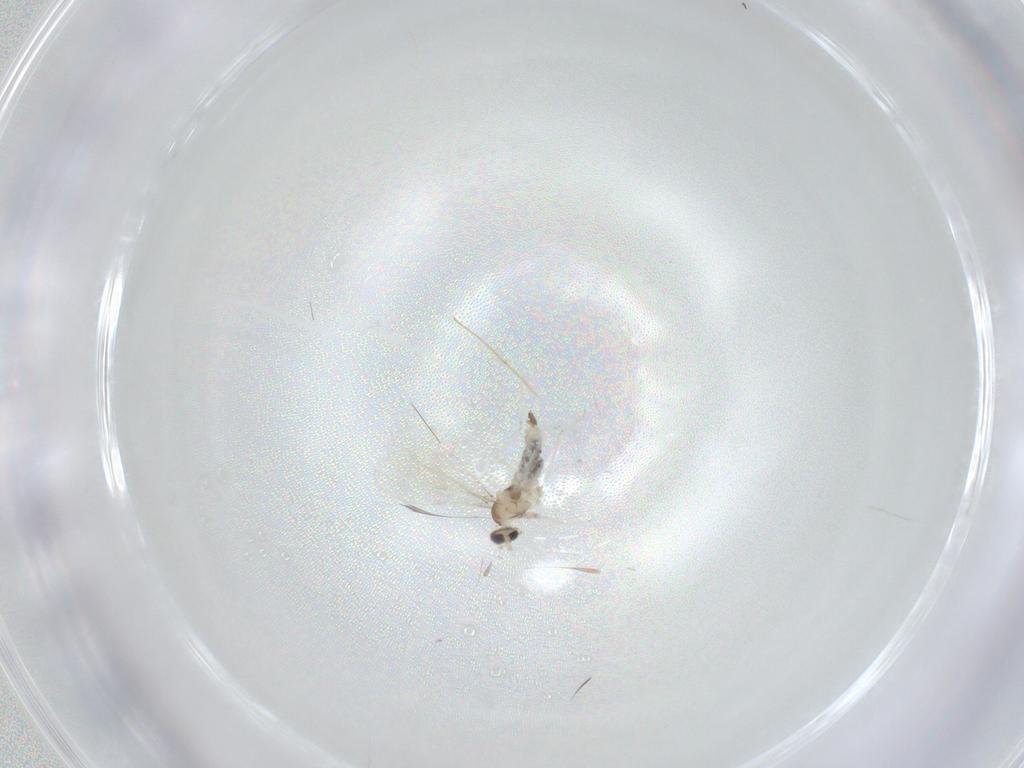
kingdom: Animalia
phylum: Arthropoda
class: Insecta
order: Diptera
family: Cecidomyiidae
